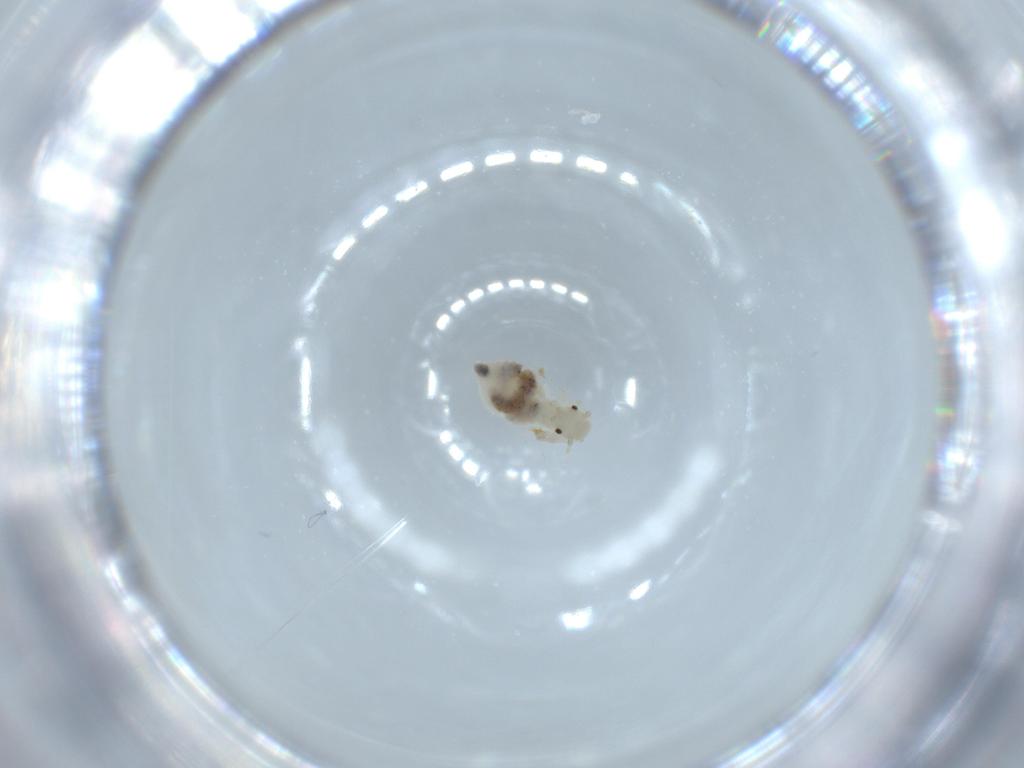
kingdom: Animalia
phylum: Arthropoda
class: Insecta
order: Psocodea
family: Caeciliusidae
